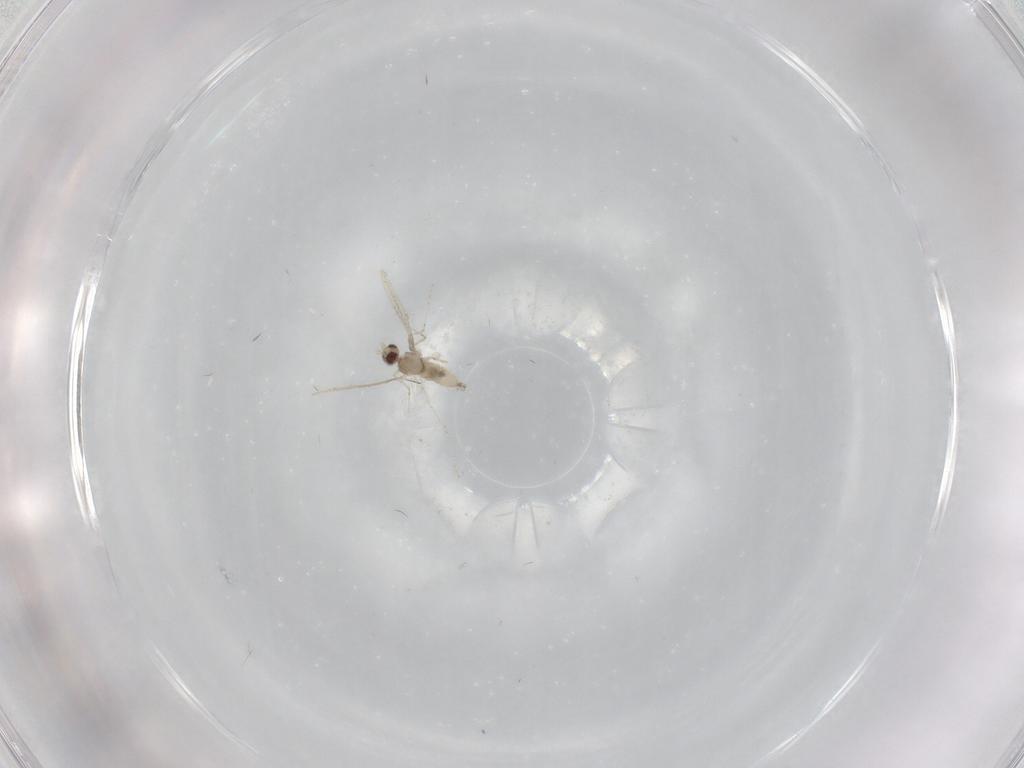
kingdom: Animalia
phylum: Arthropoda
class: Insecta
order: Diptera
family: Cecidomyiidae
